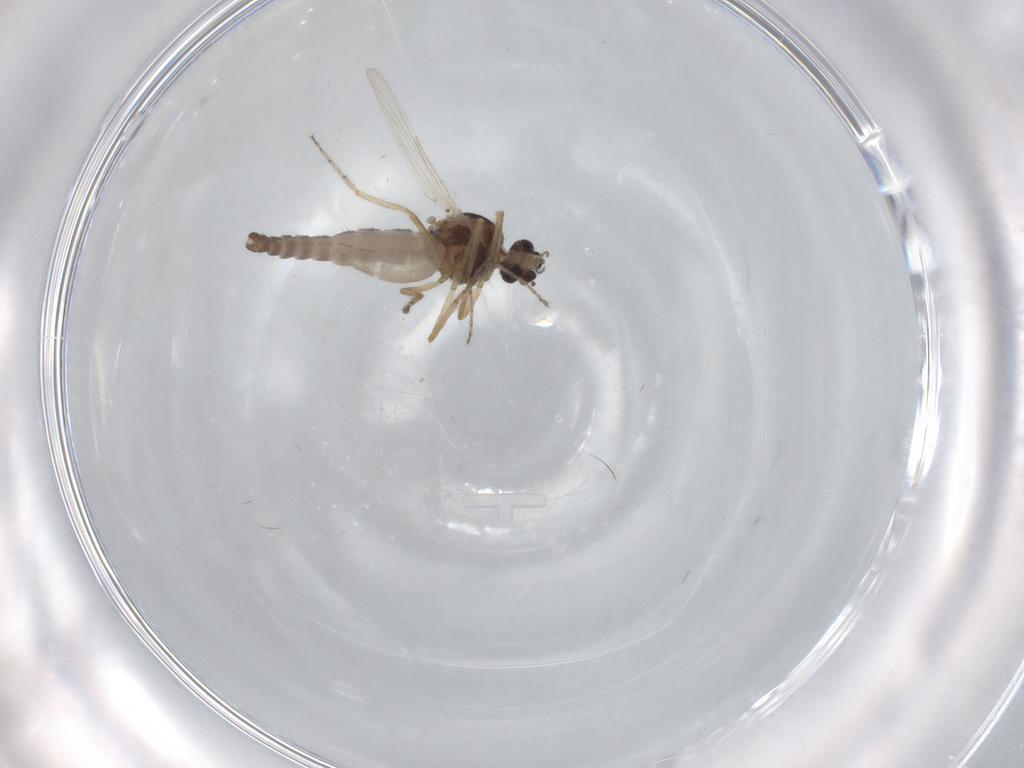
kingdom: Animalia
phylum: Arthropoda
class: Insecta
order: Diptera
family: Ceratopogonidae
